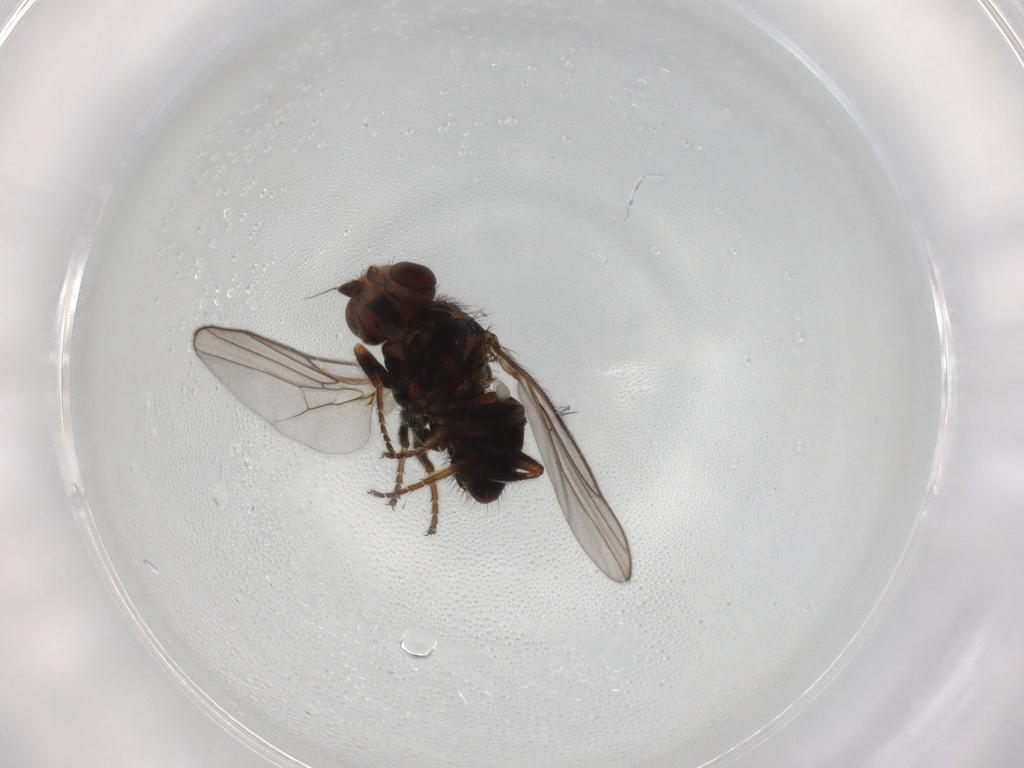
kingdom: Animalia
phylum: Arthropoda
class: Insecta
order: Diptera
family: Chloropidae
